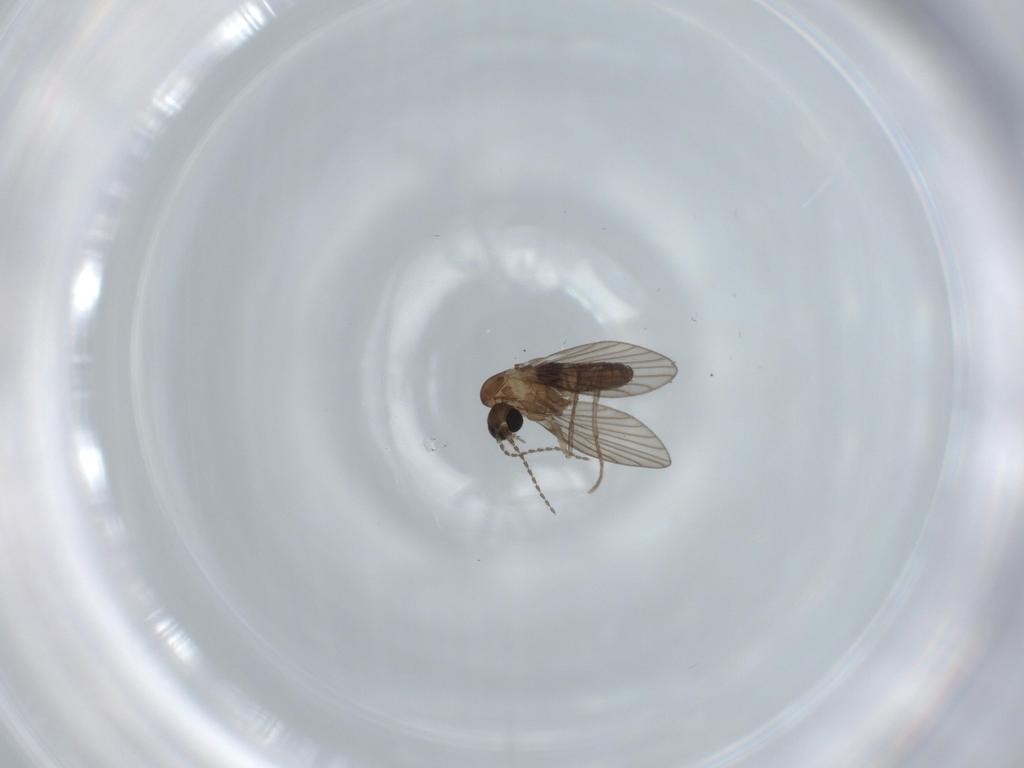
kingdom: Animalia
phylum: Arthropoda
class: Insecta
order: Diptera
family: Psychodidae
